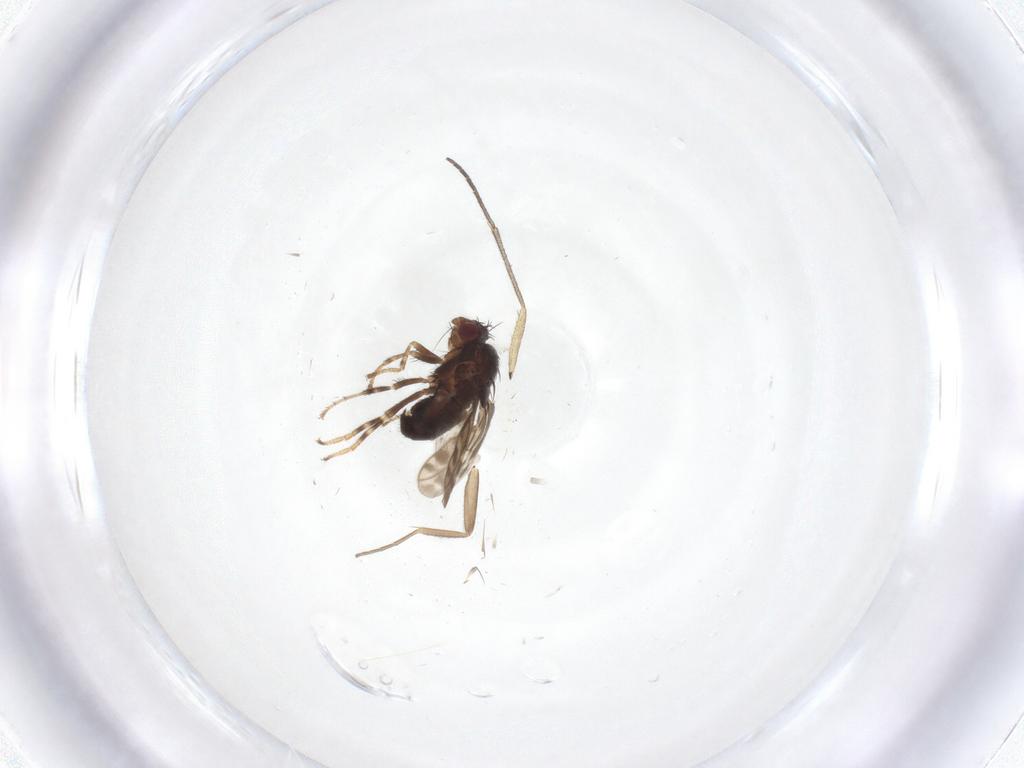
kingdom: Animalia
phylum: Arthropoda
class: Insecta
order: Diptera
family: Sphaeroceridae
